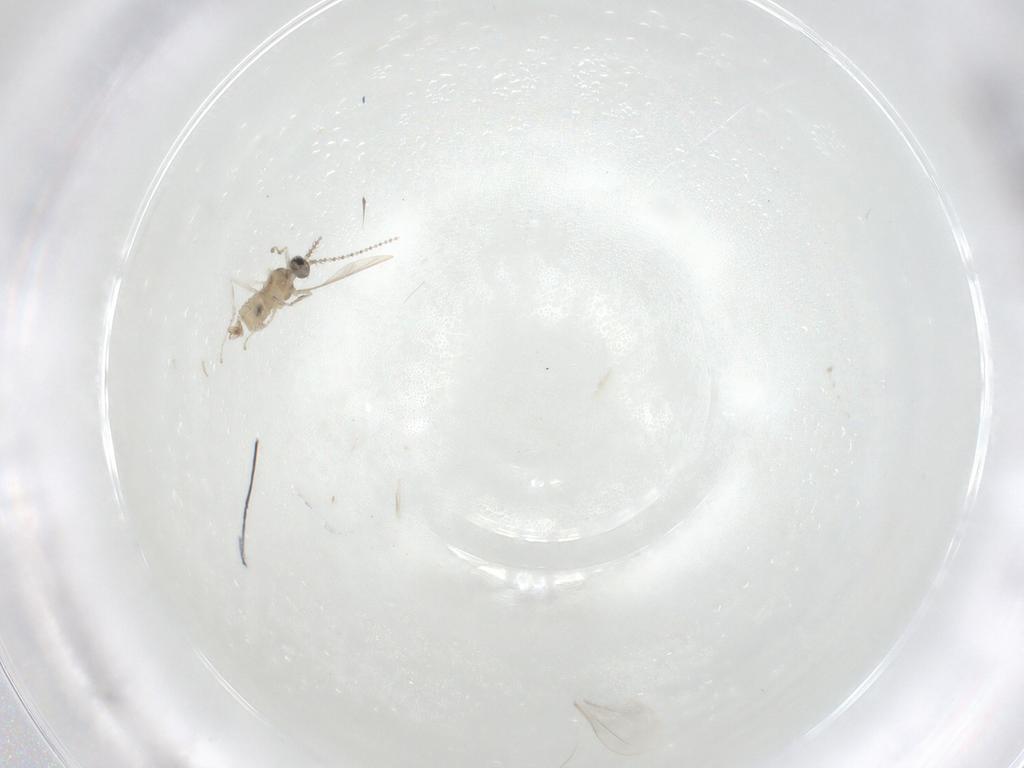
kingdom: Animalia
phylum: Arthropoda
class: Insecta
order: Diptera
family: Cecidomyiidae
